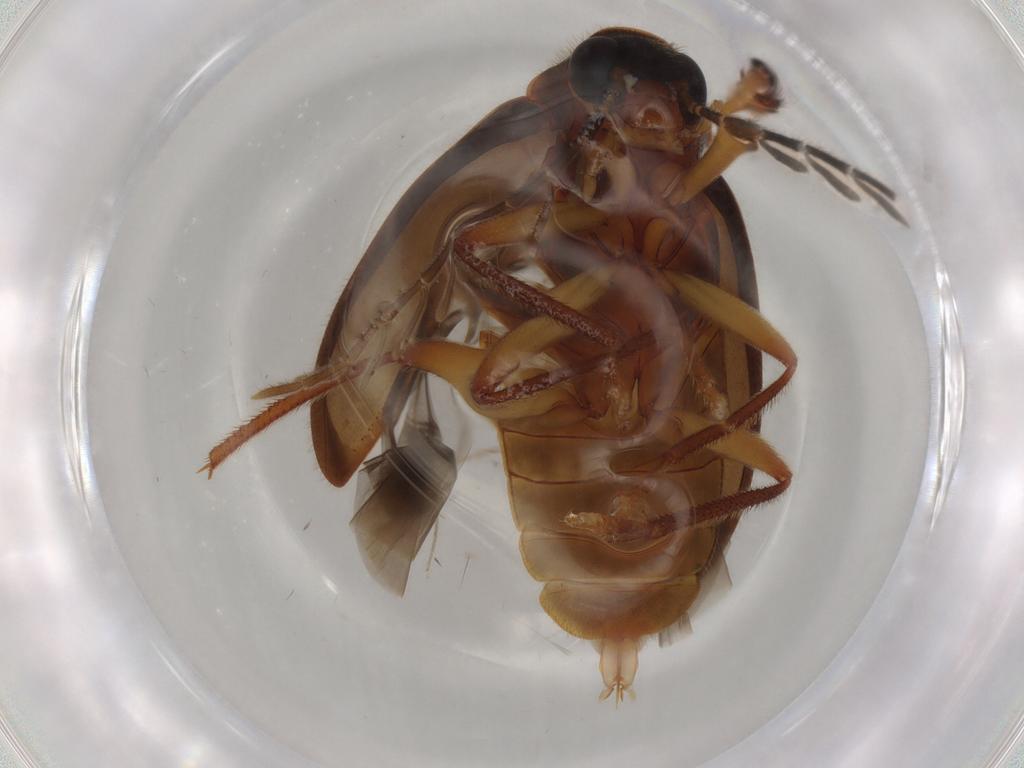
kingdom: Animalia
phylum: Arthropoda
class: Insecta
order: Coleoptera
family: Ptilodactylidae
